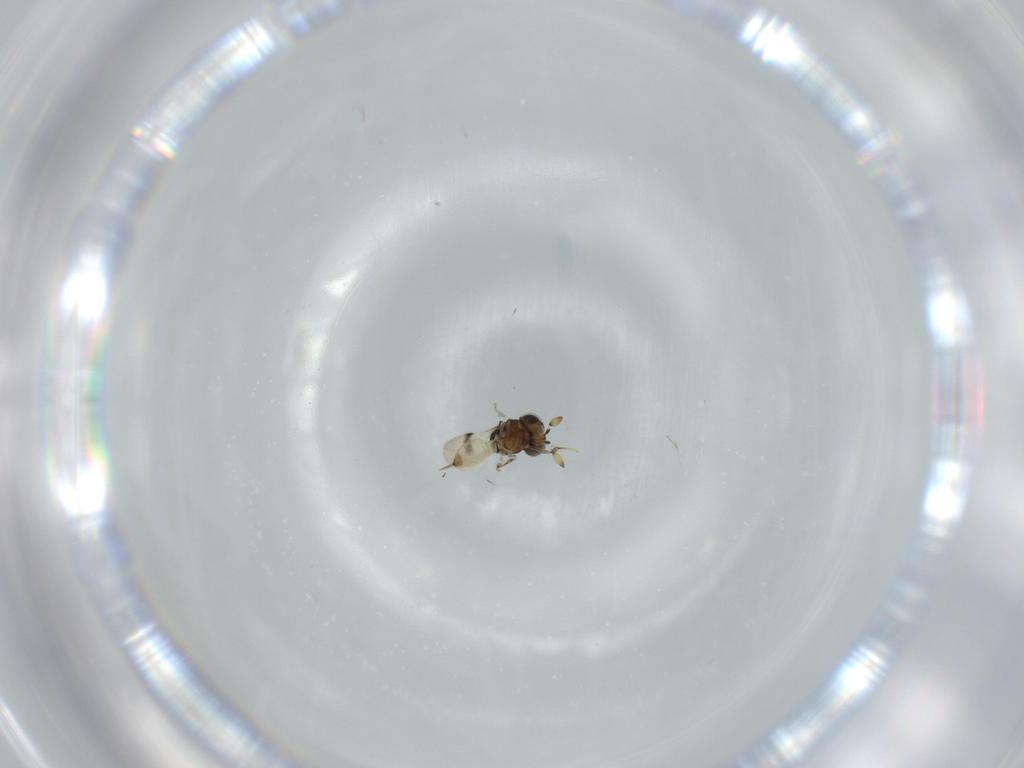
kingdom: Animalia
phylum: Arthropoda
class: Insecta
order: Hymenoptera
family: Scelionidae
